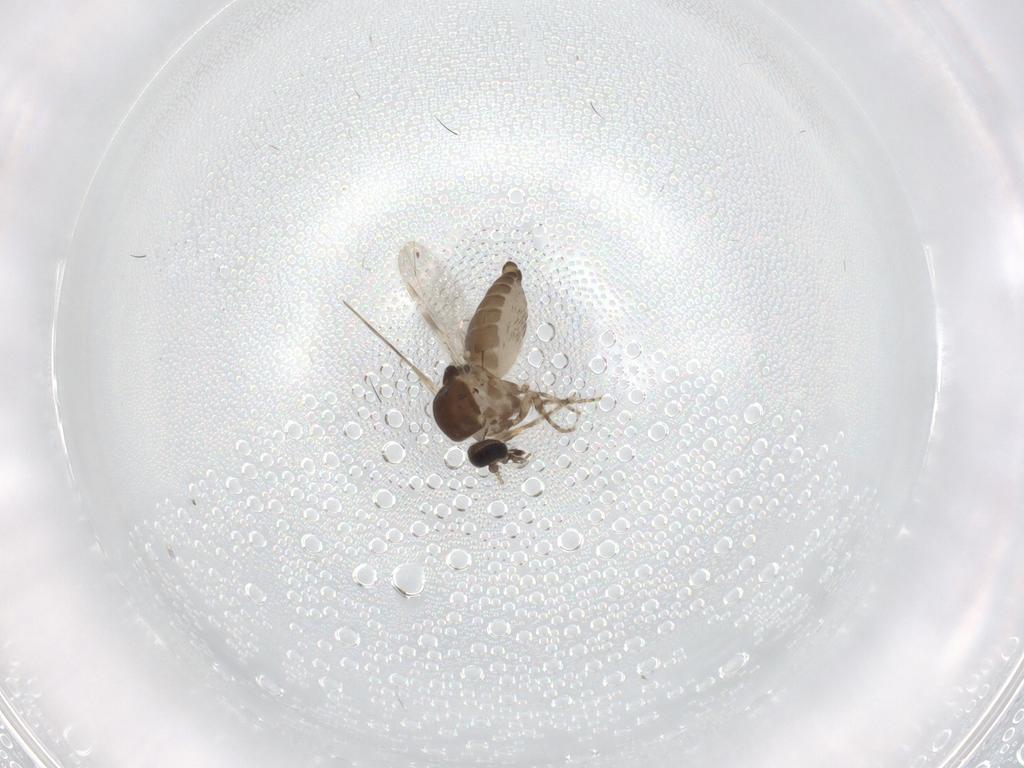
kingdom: Animalia
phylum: Arthropoda
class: Insecta
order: Diptera
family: Ceratopogonidae
